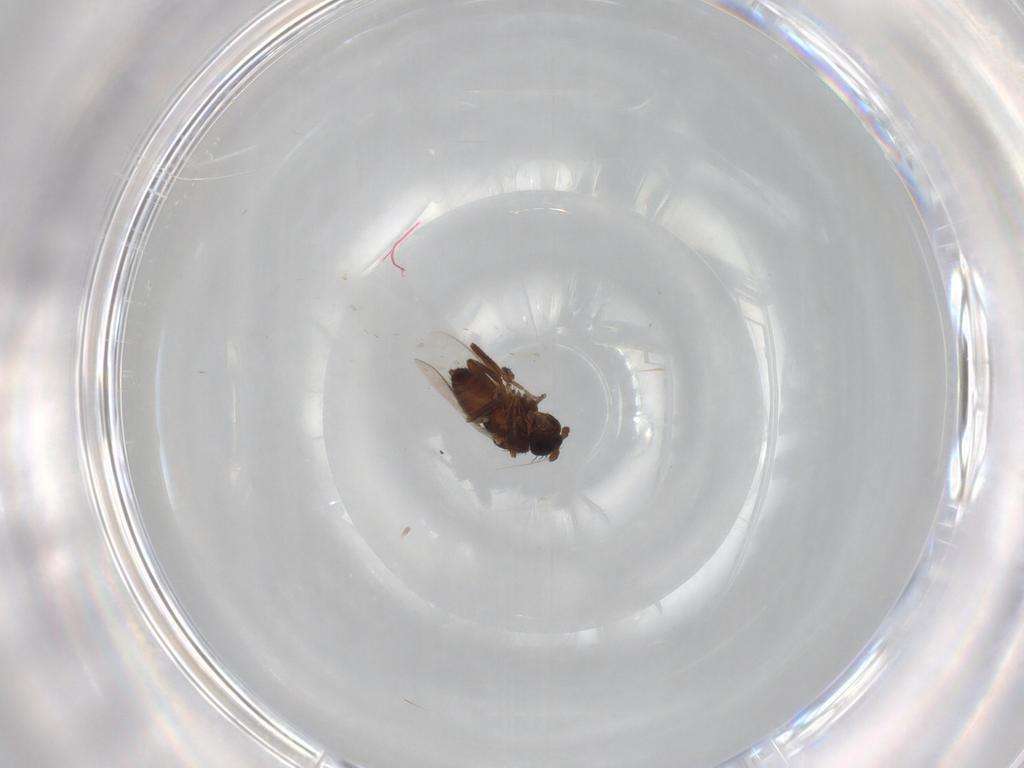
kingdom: Animalia
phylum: Arthropoda
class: Insecta
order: Diptera
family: Sphaeroceridae
